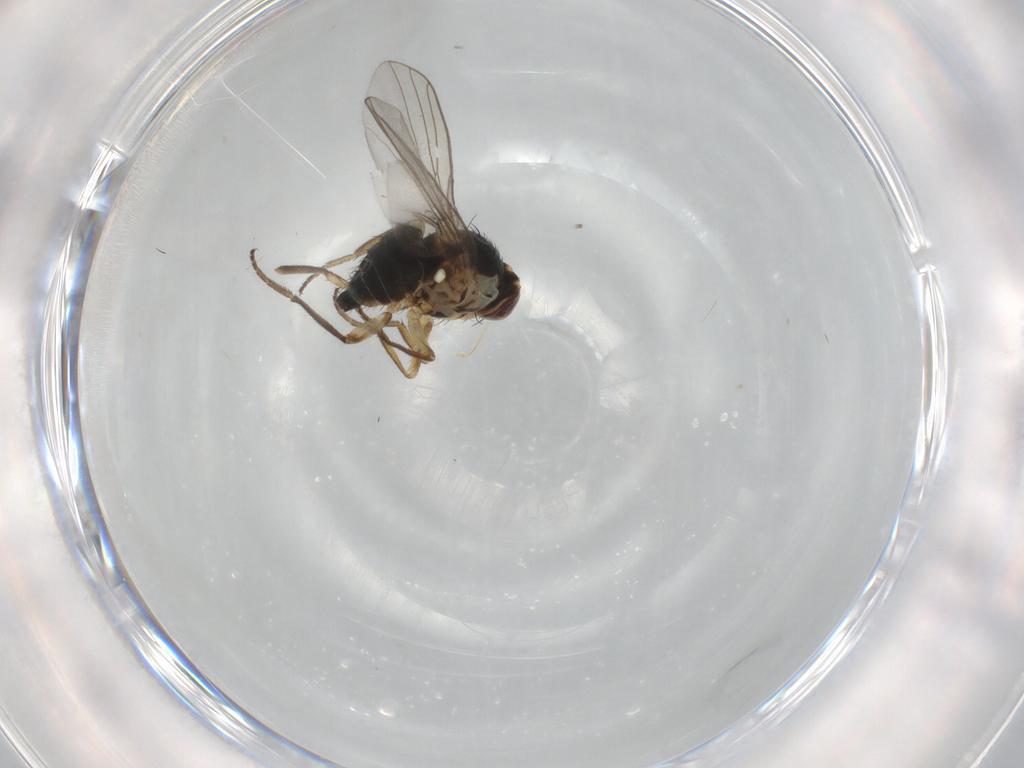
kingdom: Animalia
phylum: Arthropoda
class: Insecta
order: Diptera
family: Agromyzidae
